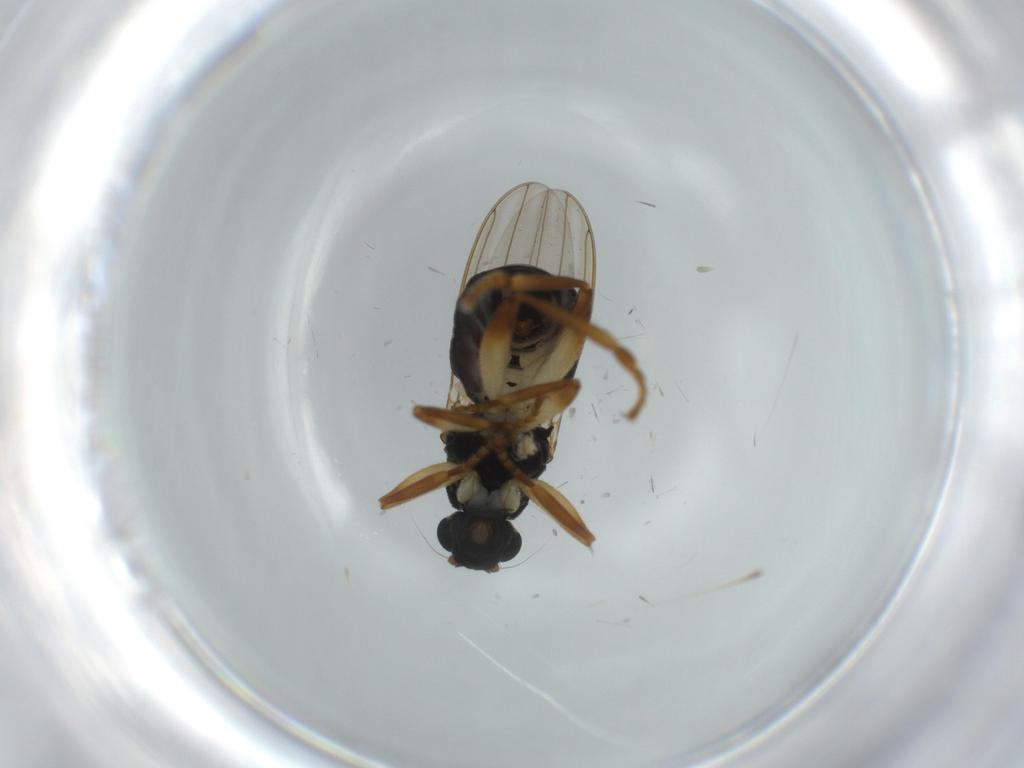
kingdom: Animalia
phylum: Arthropoda
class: Insecta
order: Diptera
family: Sphaeroceridae
